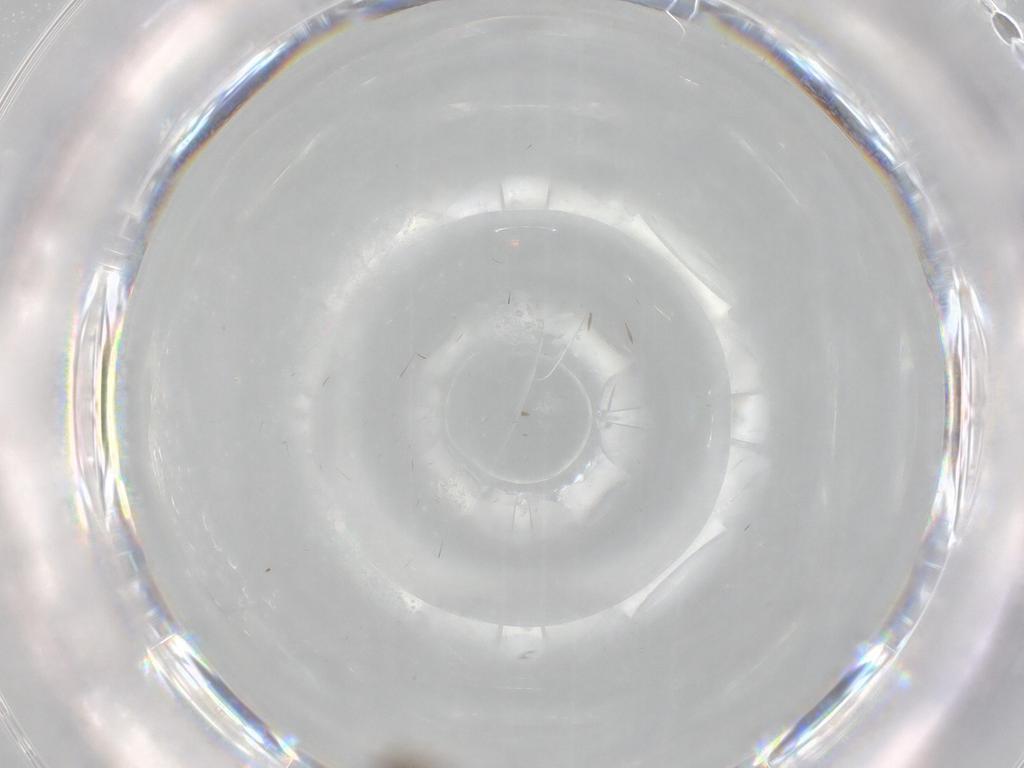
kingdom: Animalia
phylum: Arthropoda
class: Insecta
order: Diptera
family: Chironomidae
